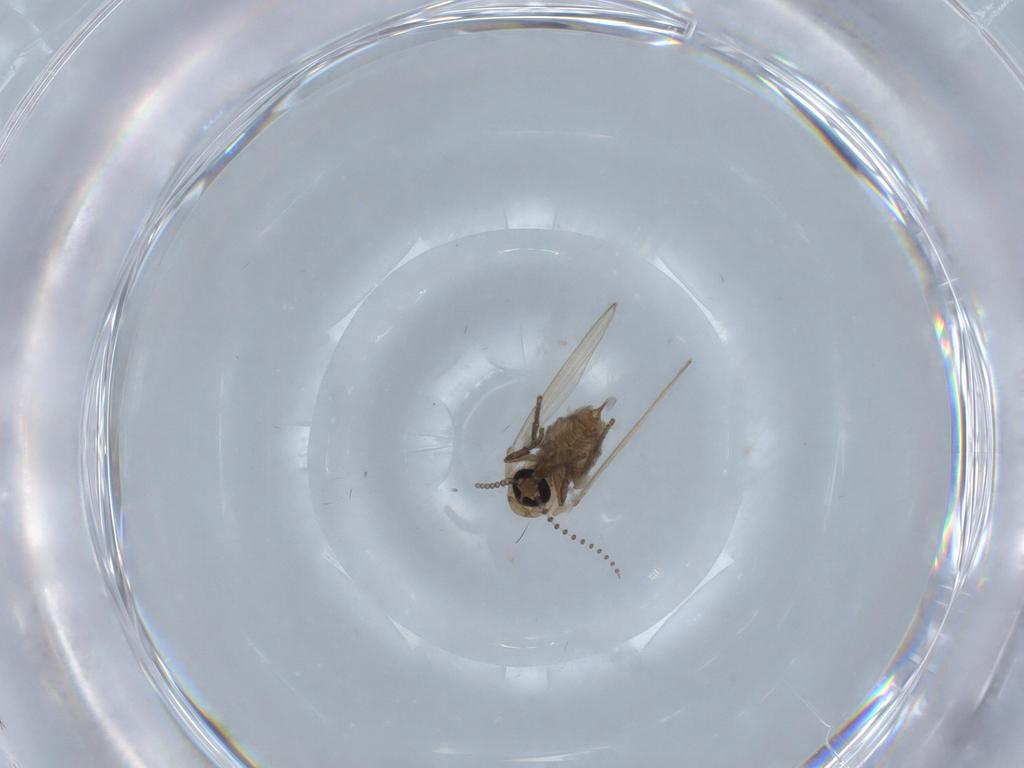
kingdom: Animalia
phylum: Arthropoda
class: Insecta
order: Diptera
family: Psychodidae
